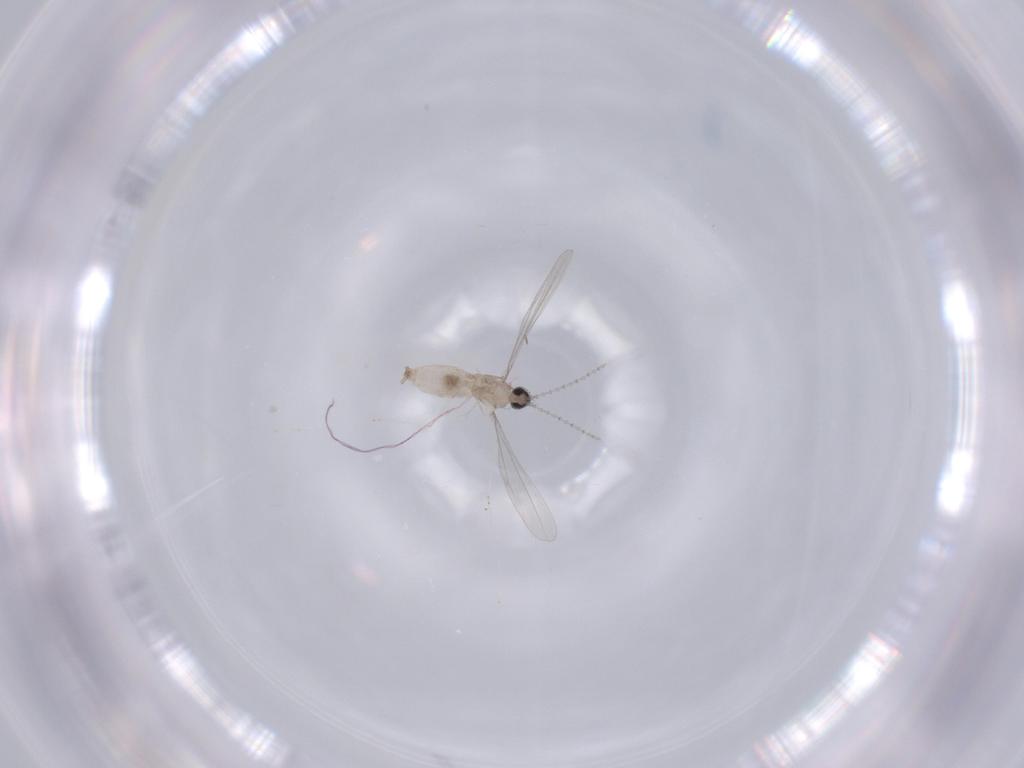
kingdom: Animalia
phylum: Arthropoda
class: Insecta
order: Diptera
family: Cecidomyiidae
